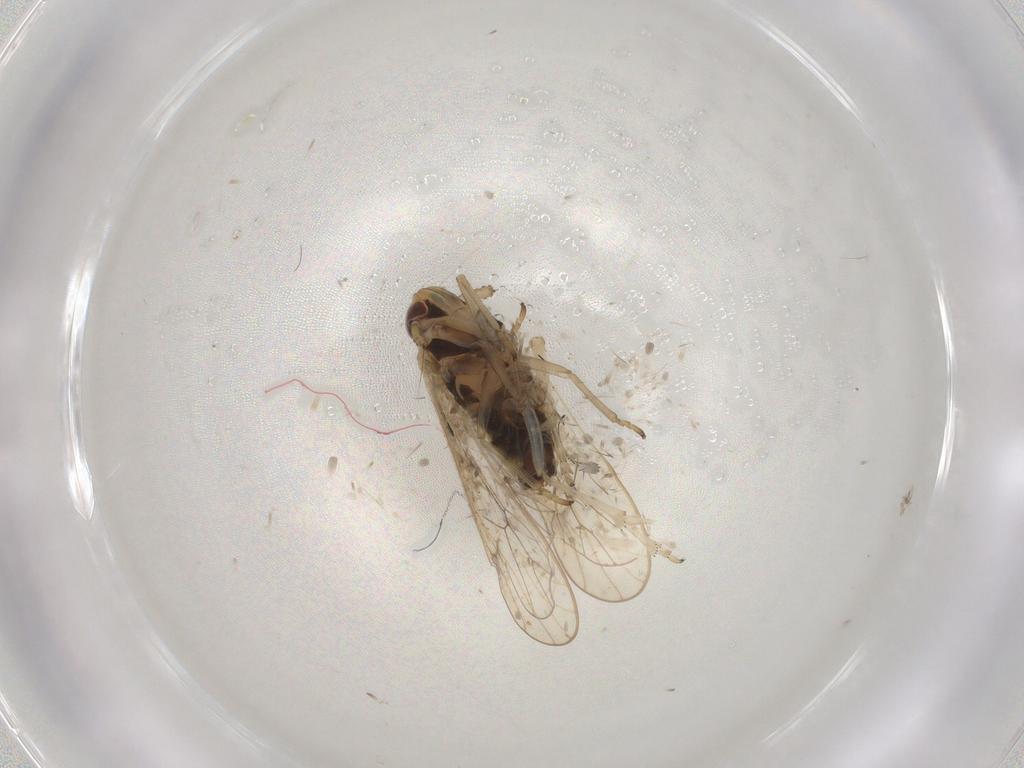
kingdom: Animalia
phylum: Arthropoda
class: Insecta
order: Hemiptera
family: Delphacidae
